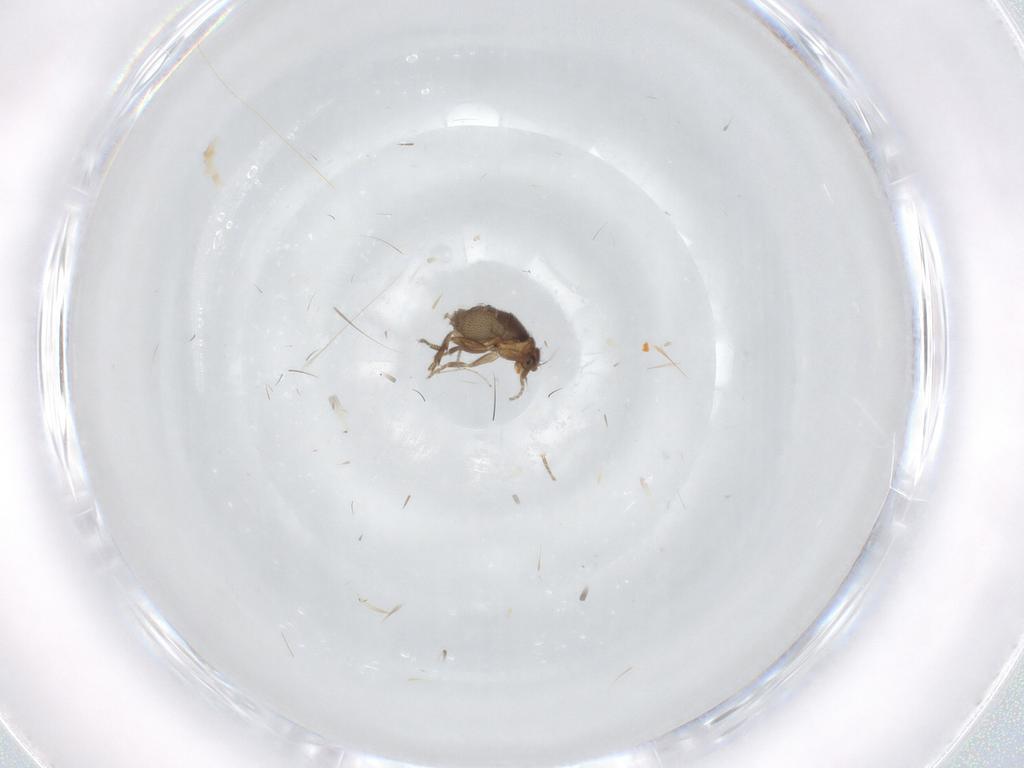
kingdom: Animalia
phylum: Arthropoda
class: Insecta
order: Diptera
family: Cecidomyiidae
